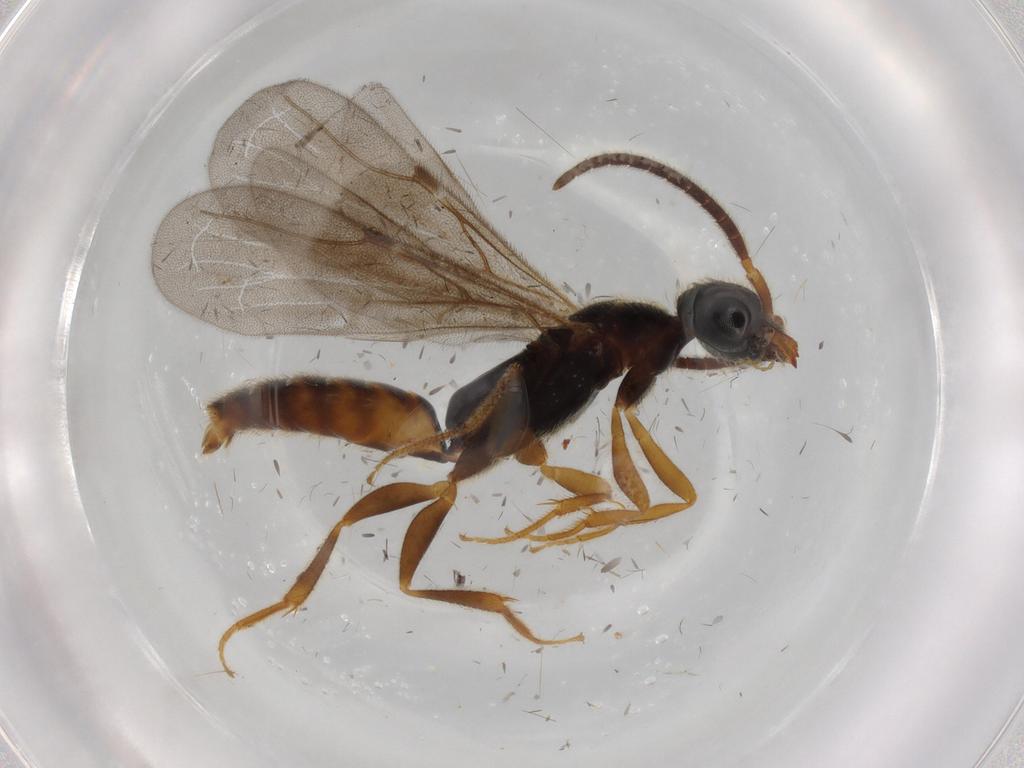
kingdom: Animalia
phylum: Arthropoda
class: Insecta
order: Hymenoptera
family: Bethylidae
